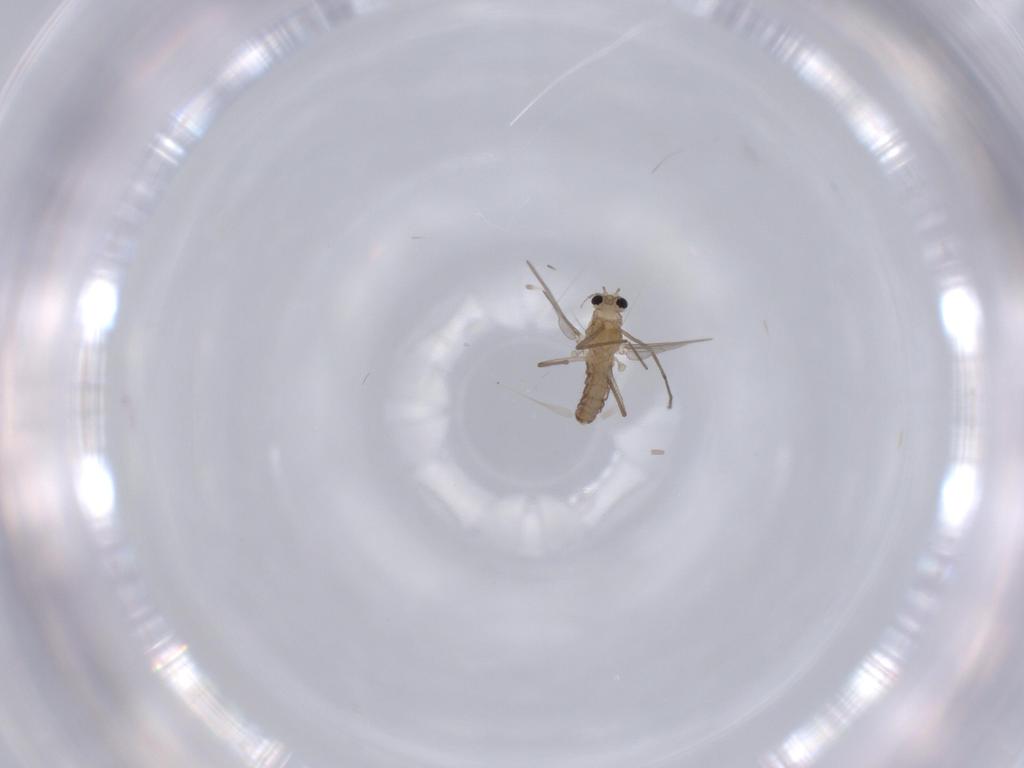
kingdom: Animalia
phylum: Arthropoda
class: Insecta
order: Diptera
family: Chironomidae
